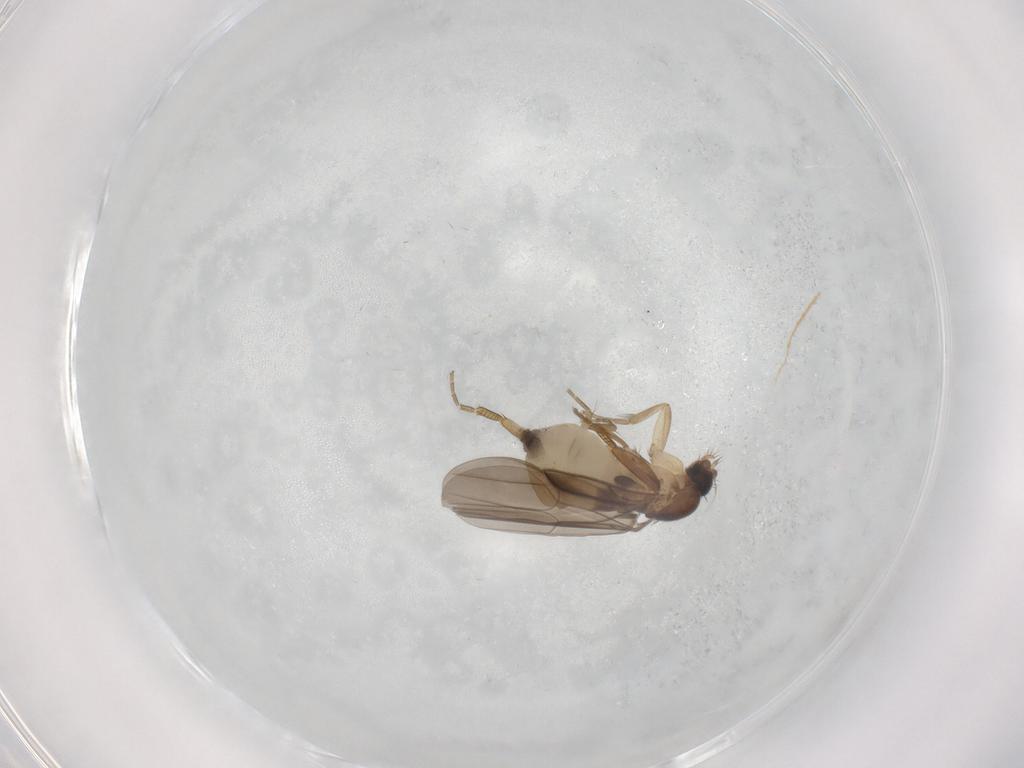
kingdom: Animalia
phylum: Arthropoda
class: Insecta
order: Diptera
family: Phoridae
